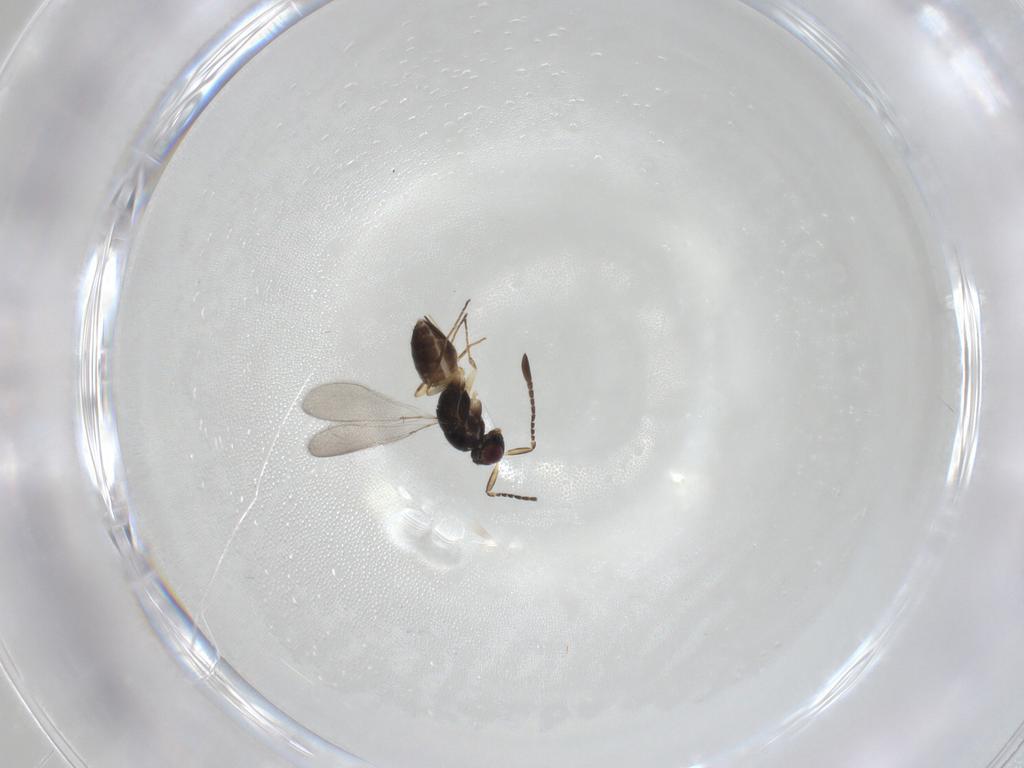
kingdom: Animalia
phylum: Arthropoda
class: Insecta
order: Hymenoptera
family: Mymaridae
